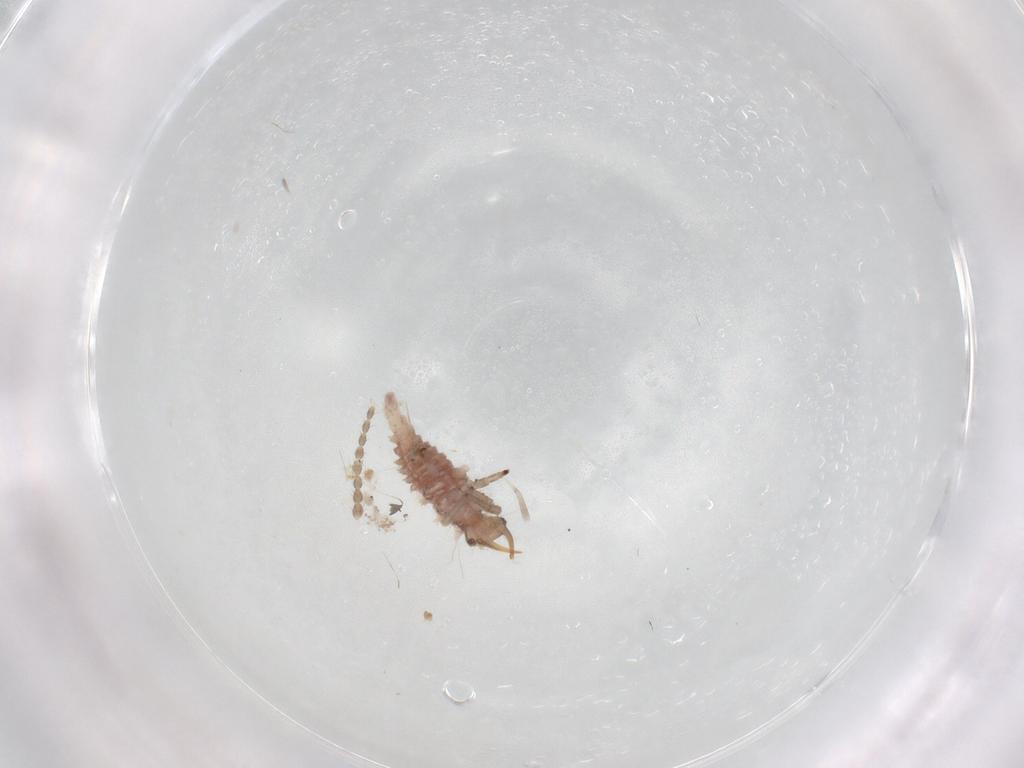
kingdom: Animalia
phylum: Arthropoda
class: Insecta
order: Neuroptera
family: Chrysopidae
